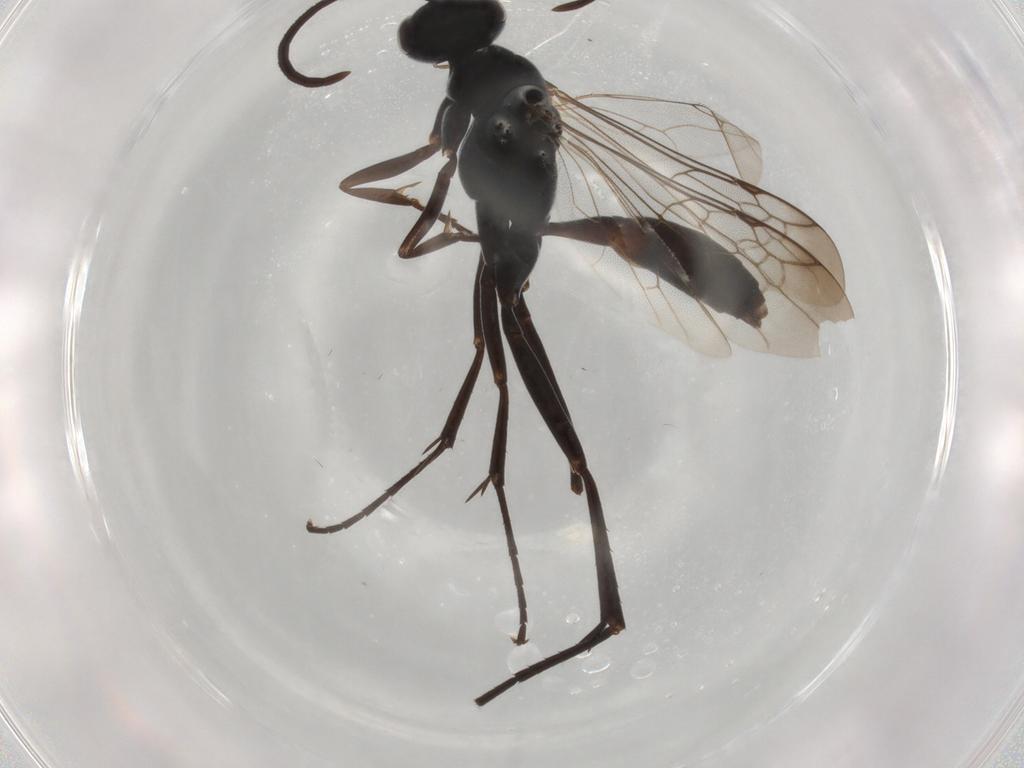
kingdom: Animalia
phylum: Arthropoda
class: Insecta
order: Hymenoptera
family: Pompilidae
